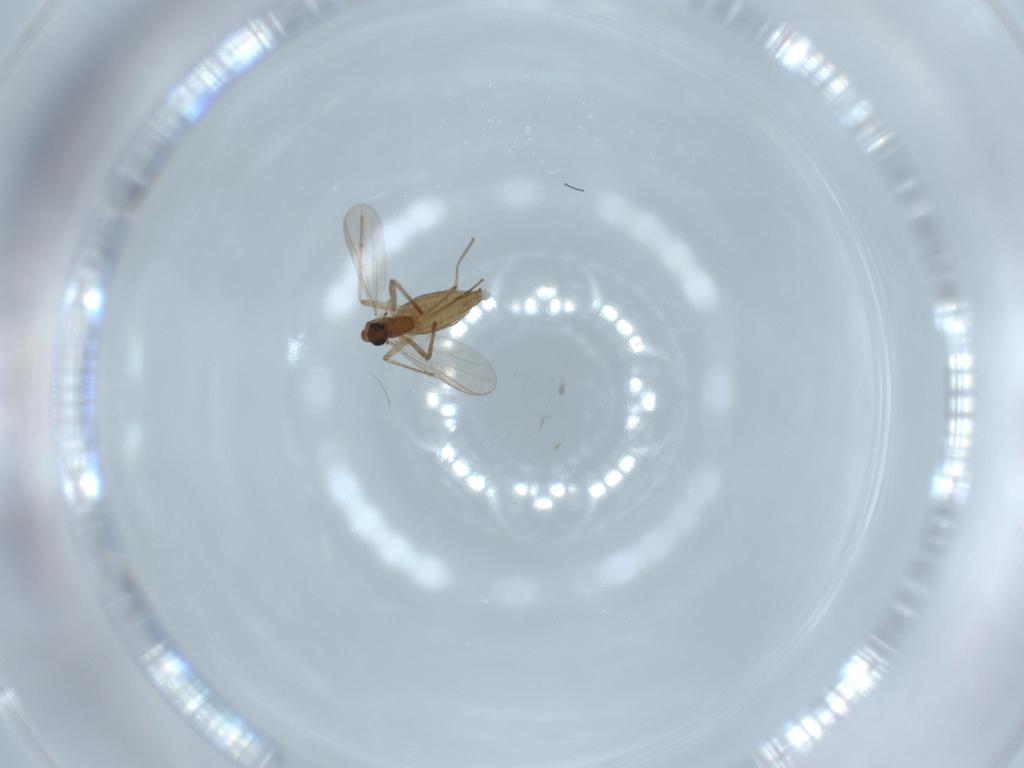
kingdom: Animalia
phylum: Arthropoda
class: Insecta
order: Diptera
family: Chironomidae
